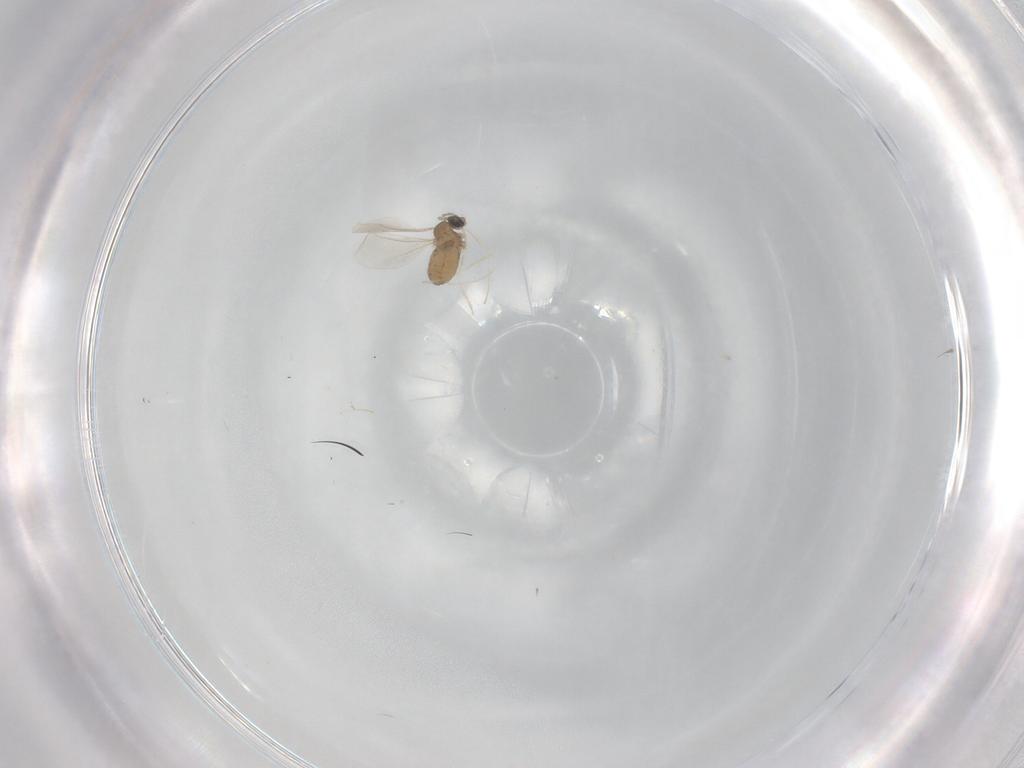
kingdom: Animalia
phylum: Arthropoda
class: Insecta
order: Diptera
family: Cecidomyiidae
